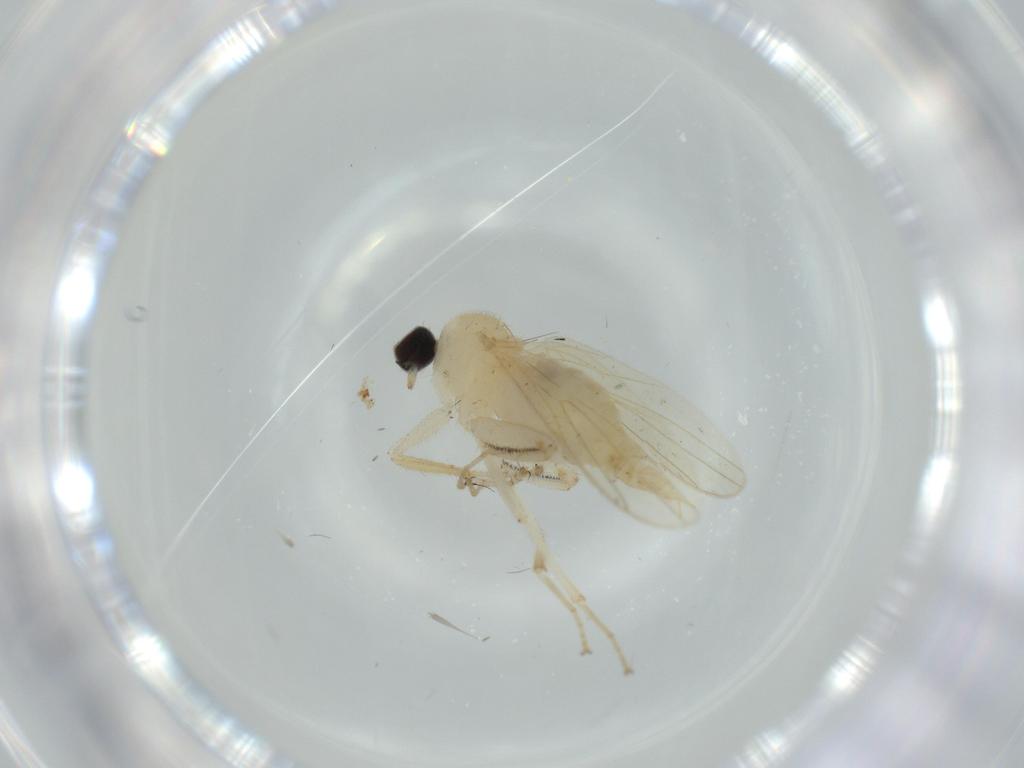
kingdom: Animalia
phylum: Arthropoda
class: Insecta
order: Diptera
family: Hybotidae
